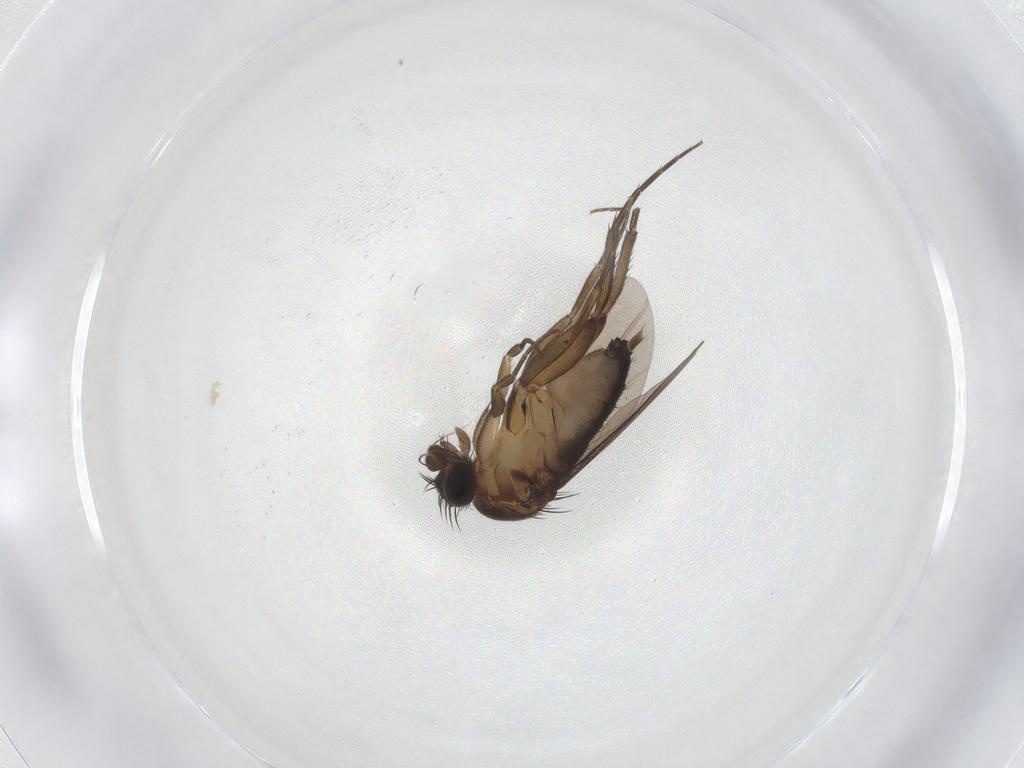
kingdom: Animalia
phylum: Arthropoda
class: Insecta
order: Diptera
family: Phoridae
